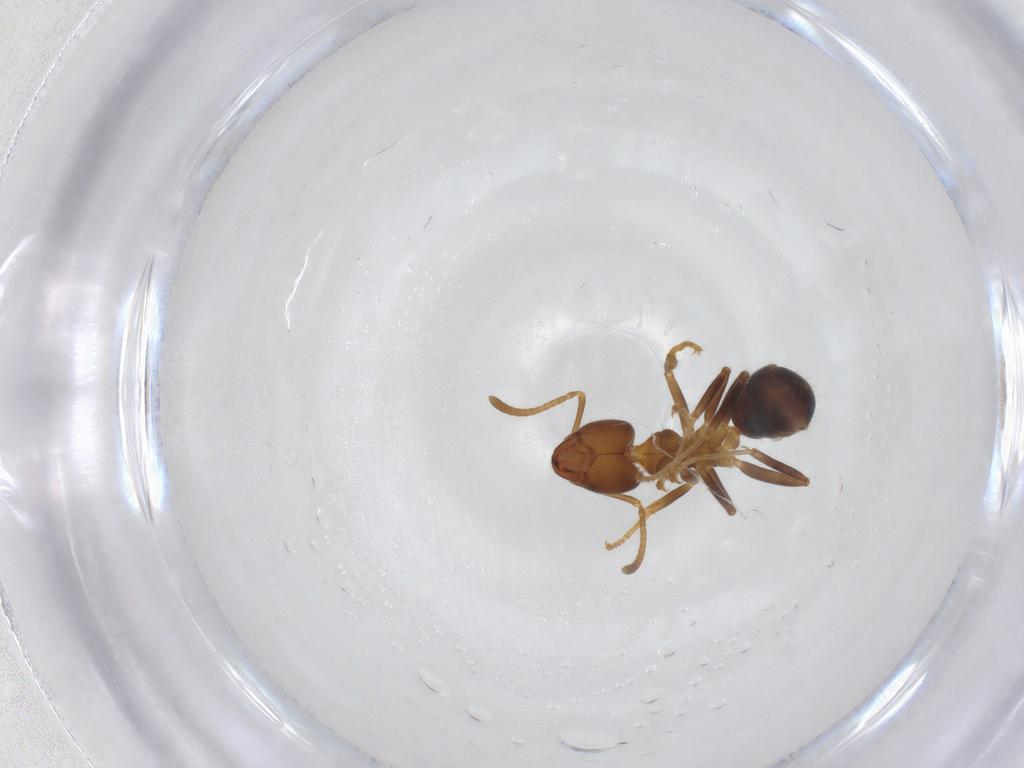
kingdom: Animalia
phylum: Arthropoda
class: Insecta
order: Hymenoptera
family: Formicidae
